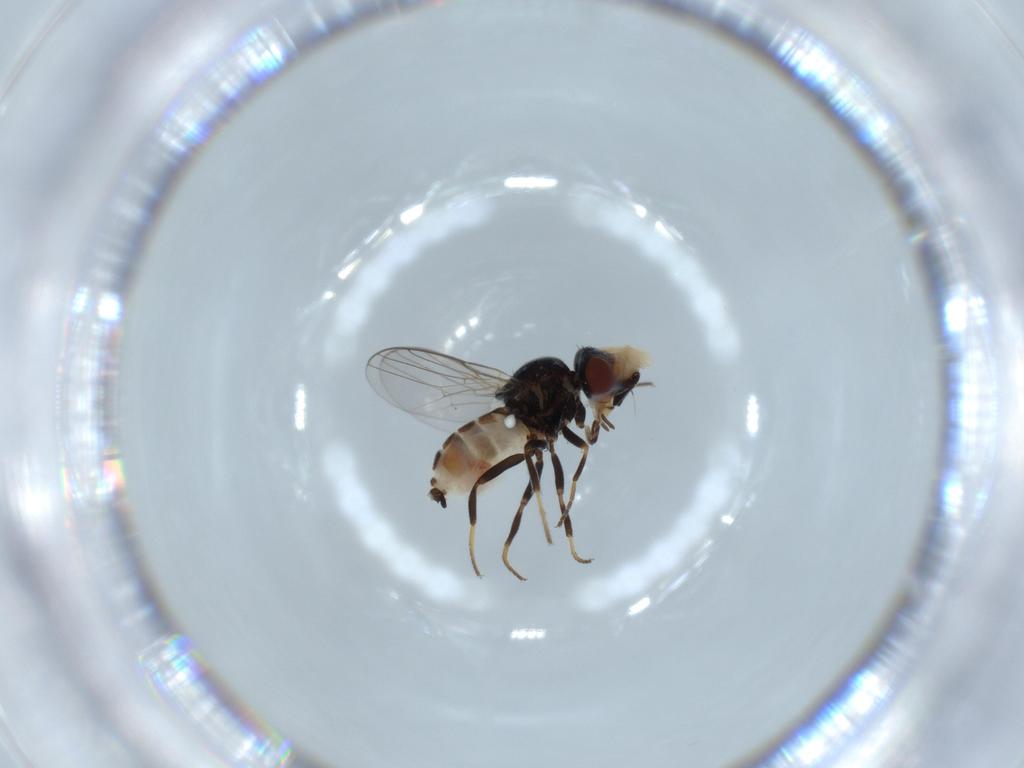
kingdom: Animalia
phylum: Arthropoda
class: Insecta
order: Diptera
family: Chloropidae
